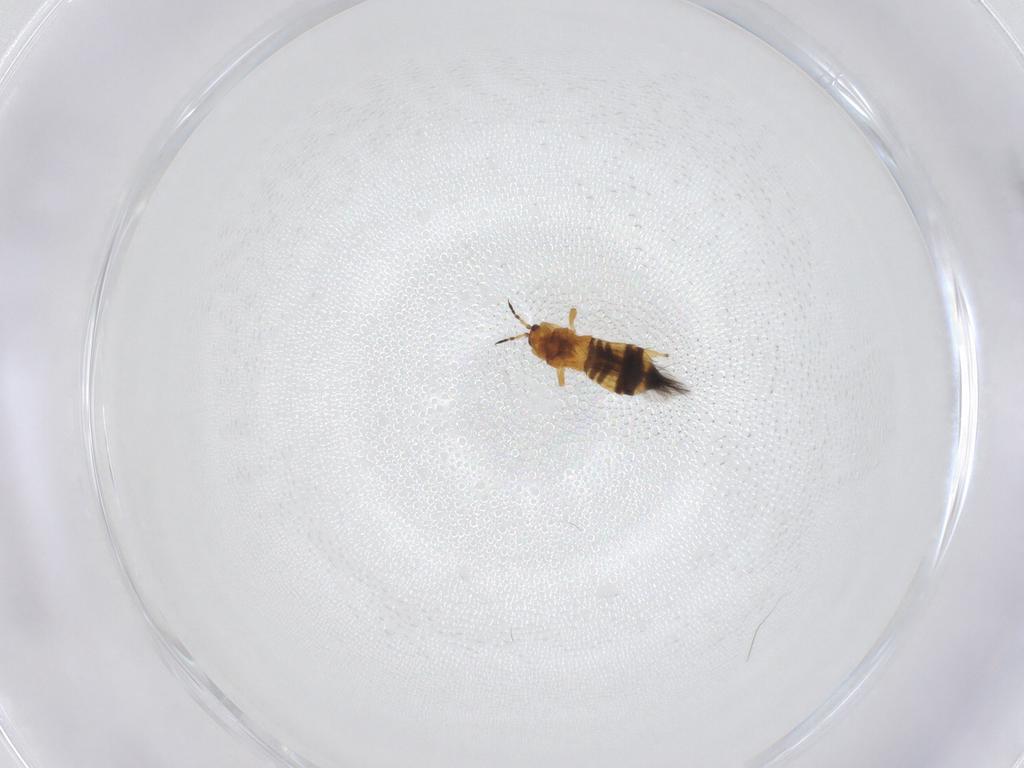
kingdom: Animalia
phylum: Arthropoda
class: Insecta
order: Thysanoptera
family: Thripidae
